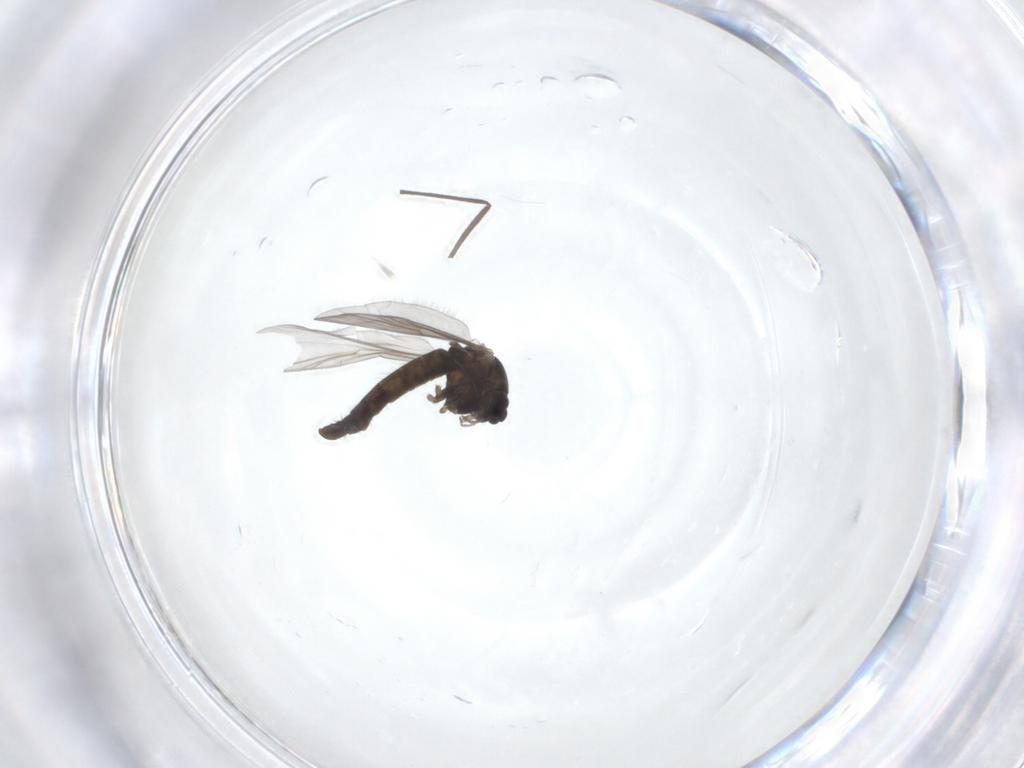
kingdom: Animalia
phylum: Arthropoda
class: Insecta
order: Diptera
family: Chironomidae
